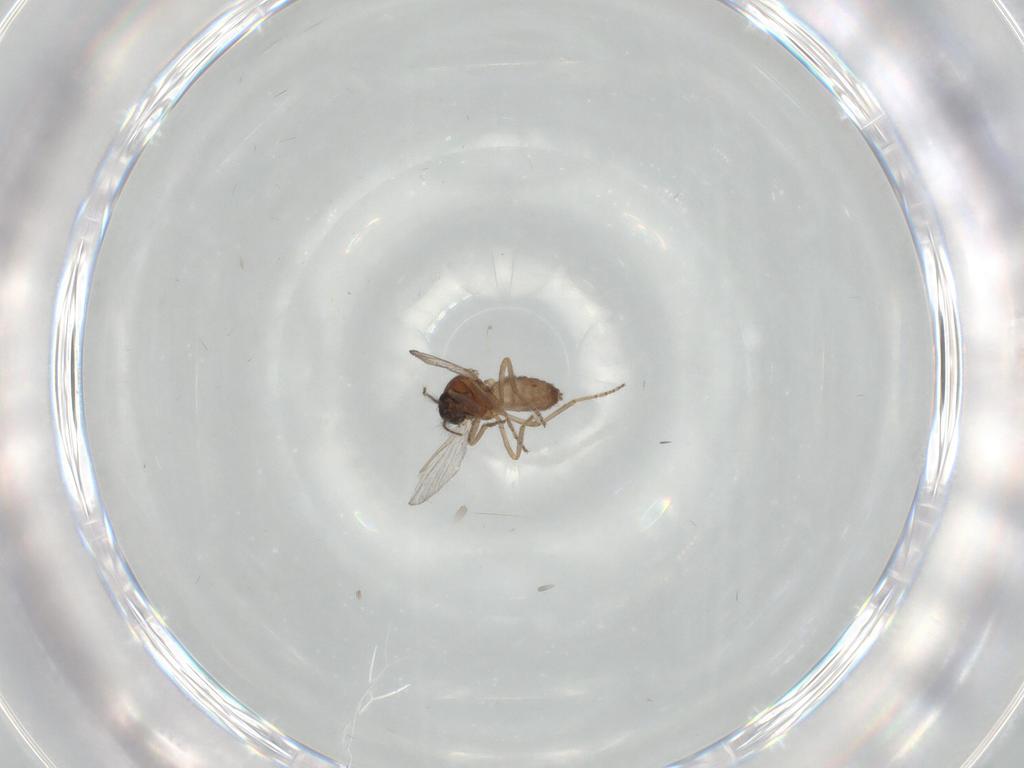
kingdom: Animalia
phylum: Arthropoda
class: Insecta
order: Diptera
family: Ceratopogonidae
